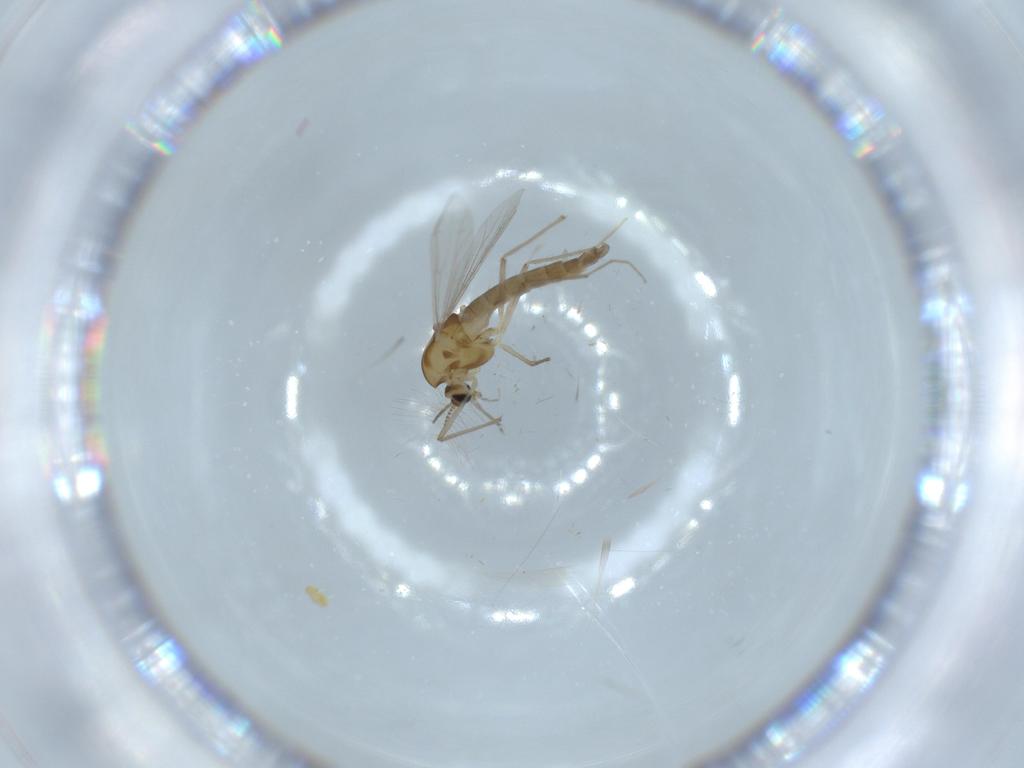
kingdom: Animalia
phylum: Arthropoda
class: Insecta
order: Diptera
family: Chironomidae
